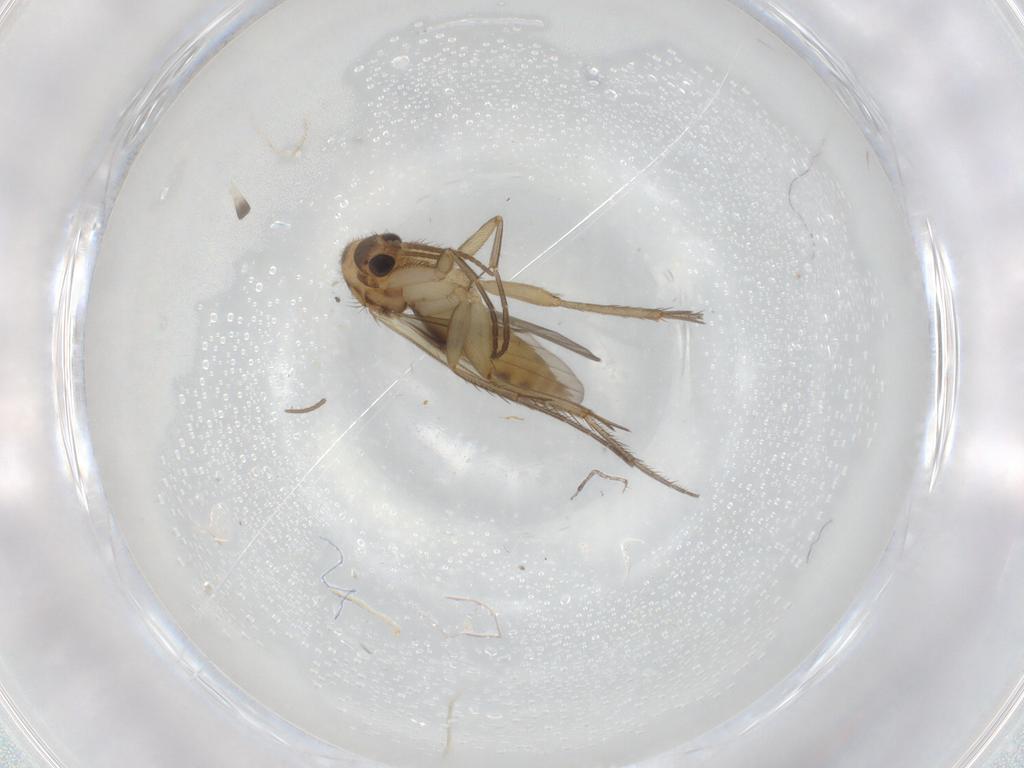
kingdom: Animalia
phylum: Arthropoda
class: Insecta
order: Diptera
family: Mycetophilidae
